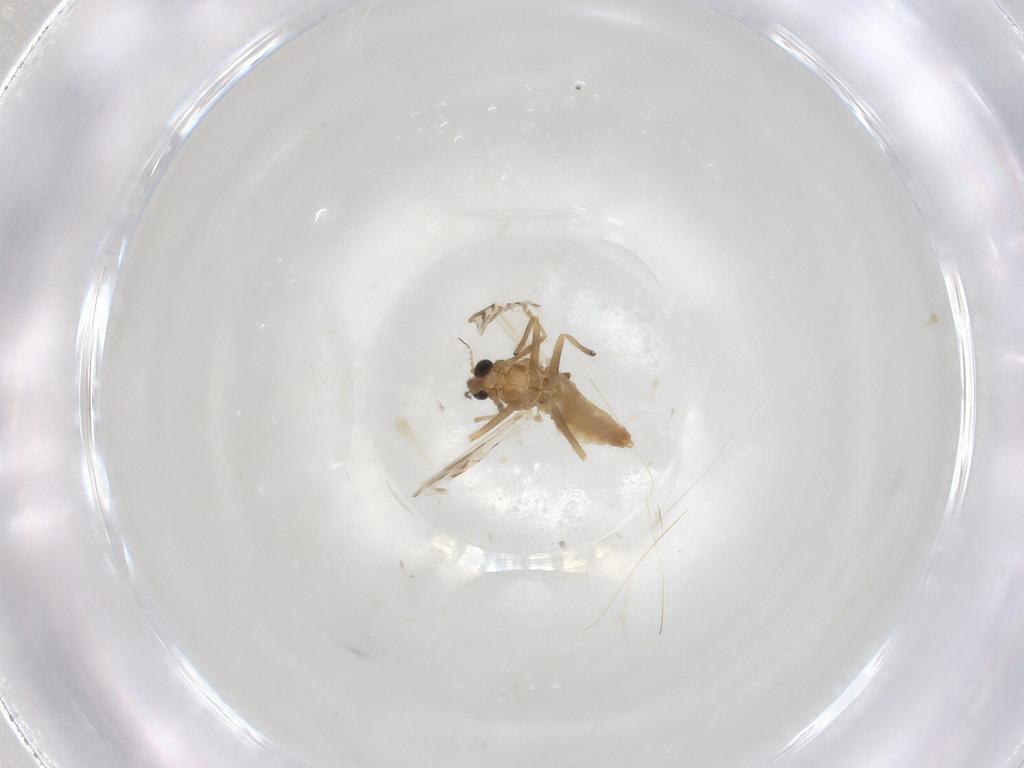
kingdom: Animalia
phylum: Arthropoda
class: Insecta
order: Diptera
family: Chironomidae
